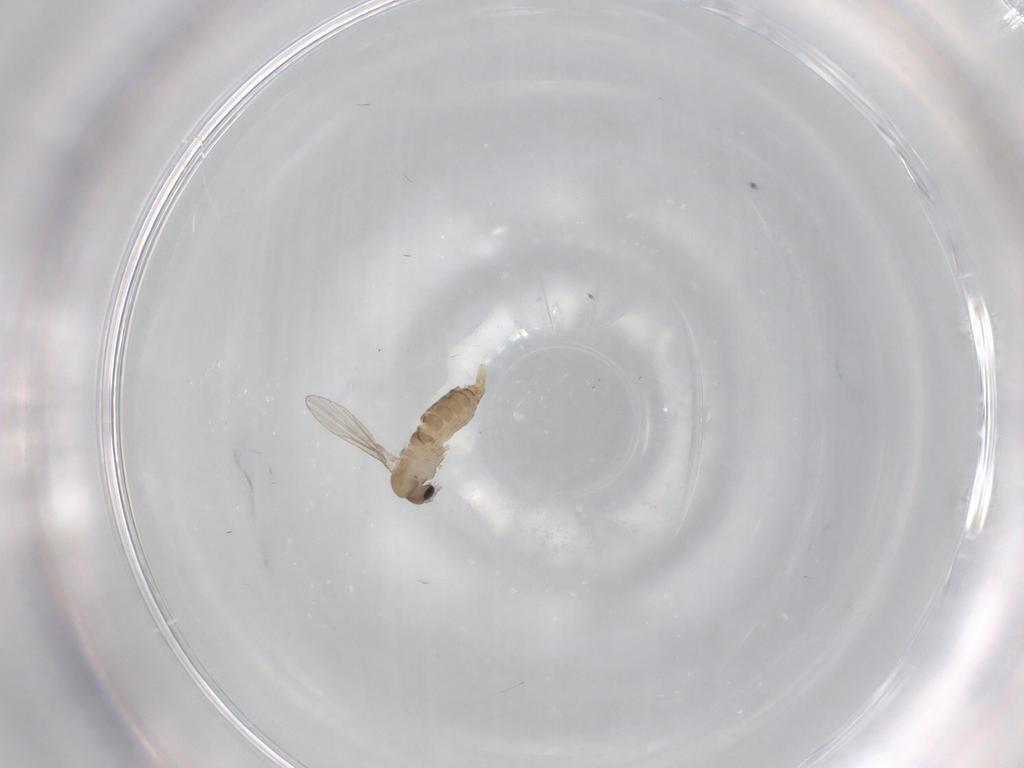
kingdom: Animalia
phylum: Arthropoda
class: Insecta
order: Diptera
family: Psychodidae
